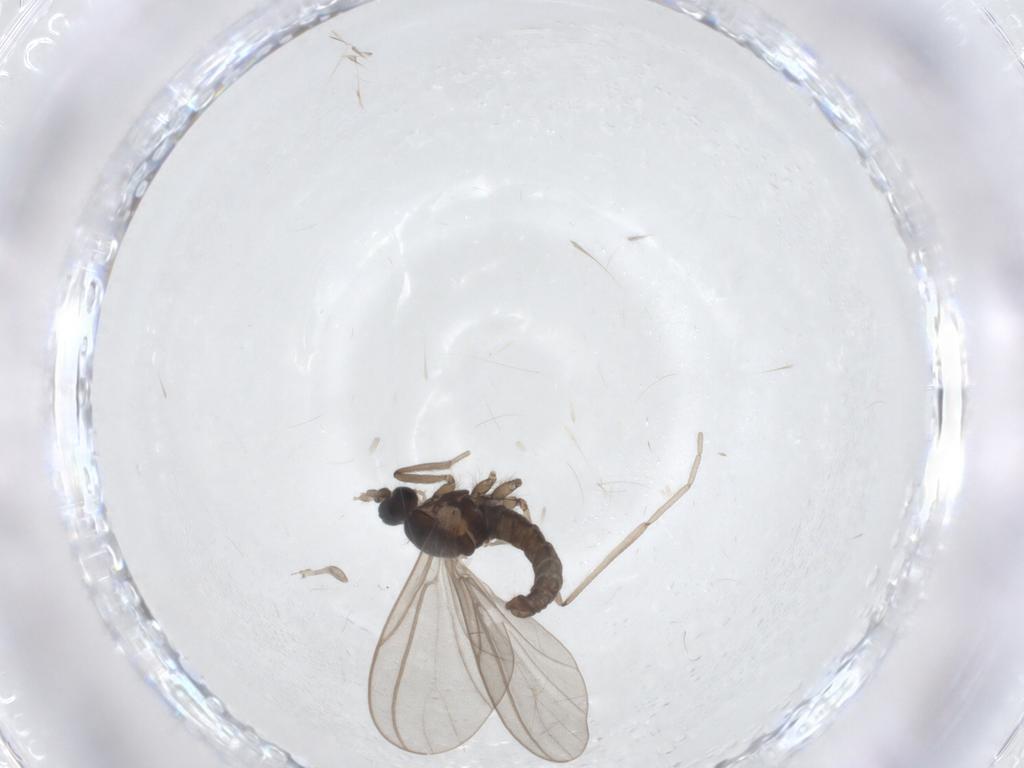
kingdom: Animalia
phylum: Arthropoda
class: Insecta
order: Diptera
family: Cecidomyiidae
